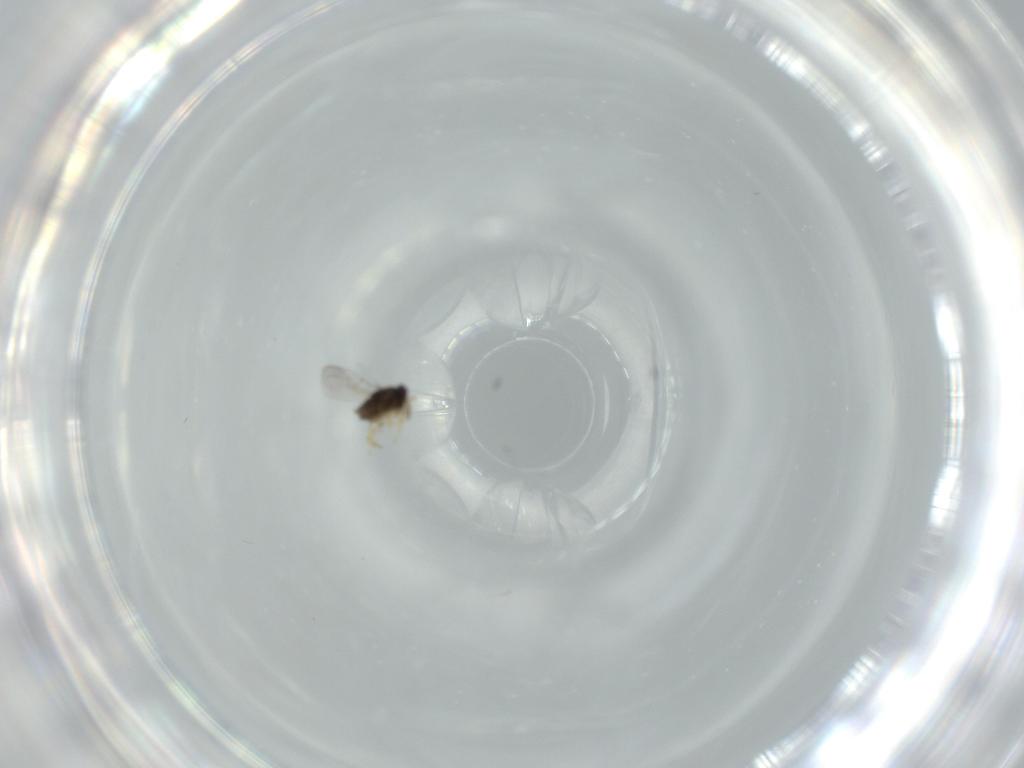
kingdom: Animalia
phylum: Arthropoda
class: Insecta
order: Hymenoptera
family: Encyrtidae
